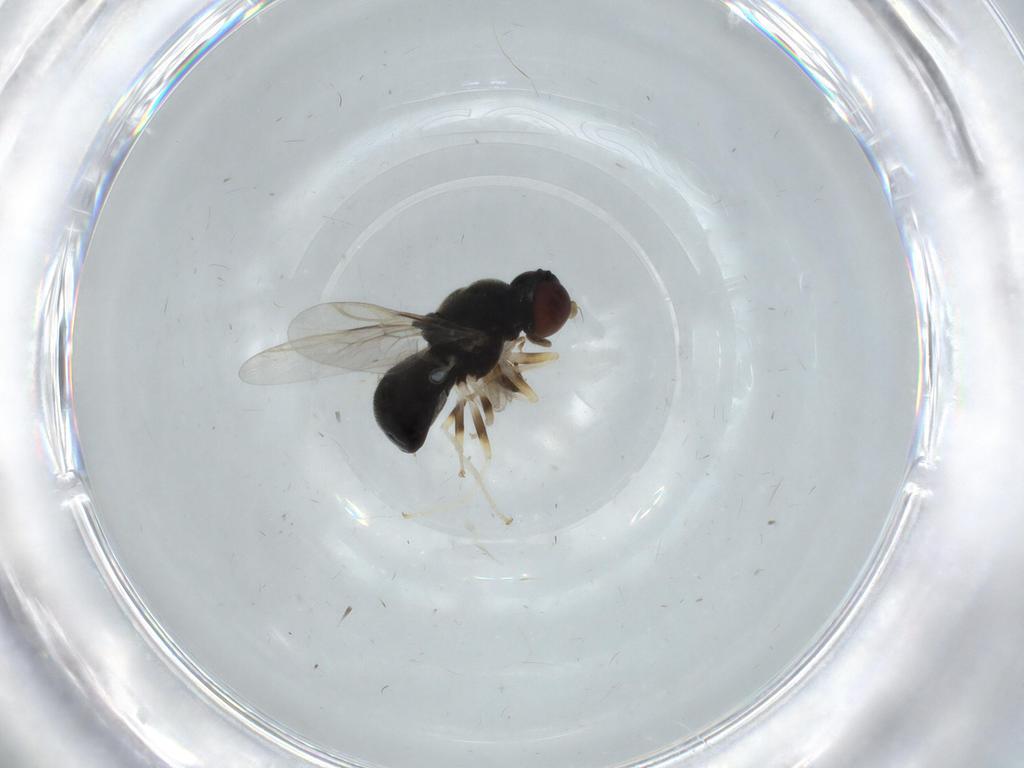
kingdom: Animalia
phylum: Arthropoda
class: Insecta
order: Diptera
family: Stratiomyidae
